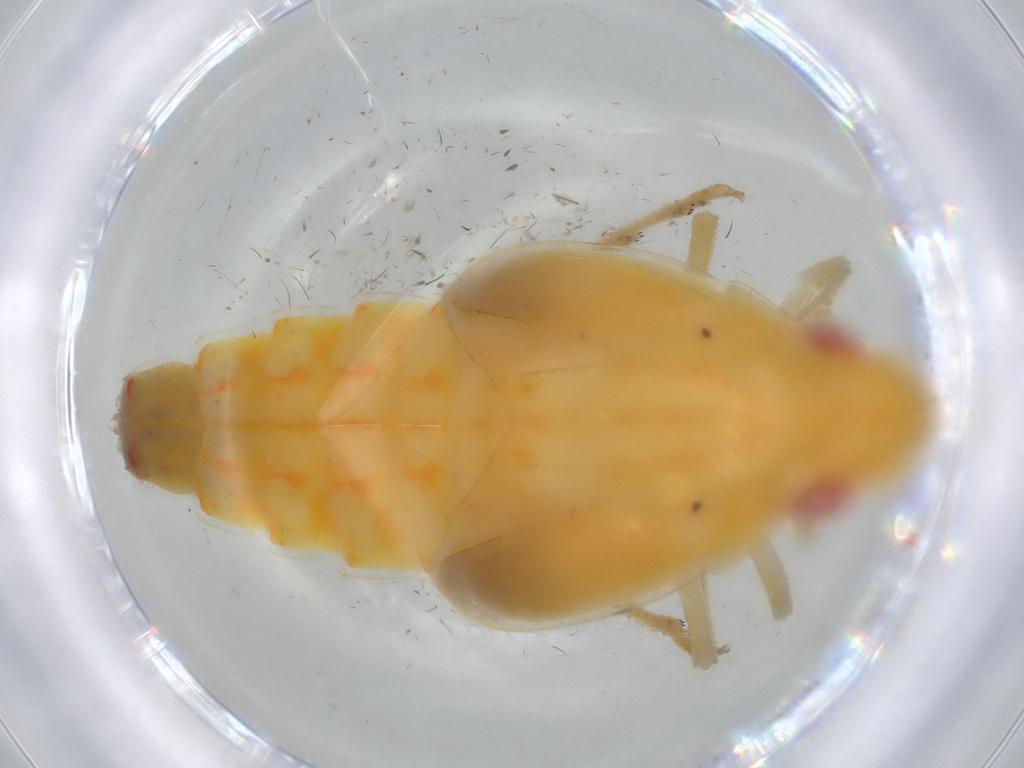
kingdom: Animalia
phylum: Arthropoda
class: Insecta
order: Hemiptera
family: Tropiduchidae
